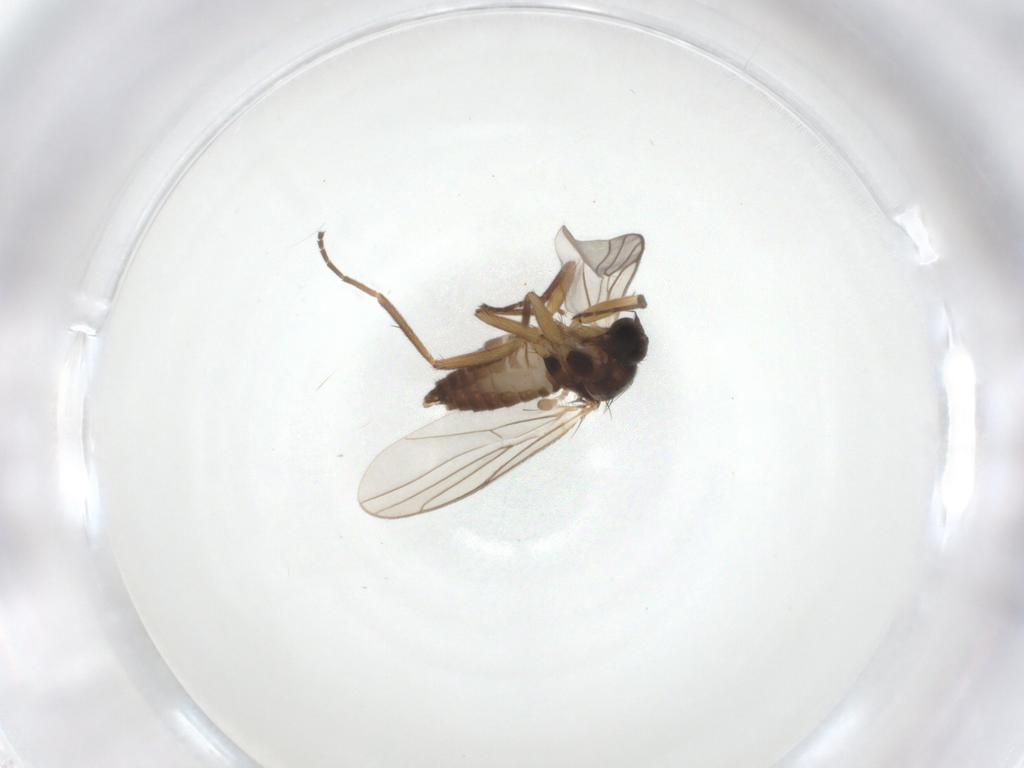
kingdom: Animalia
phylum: Arthropoda
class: Insecta
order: Diptera
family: Hybotidae
